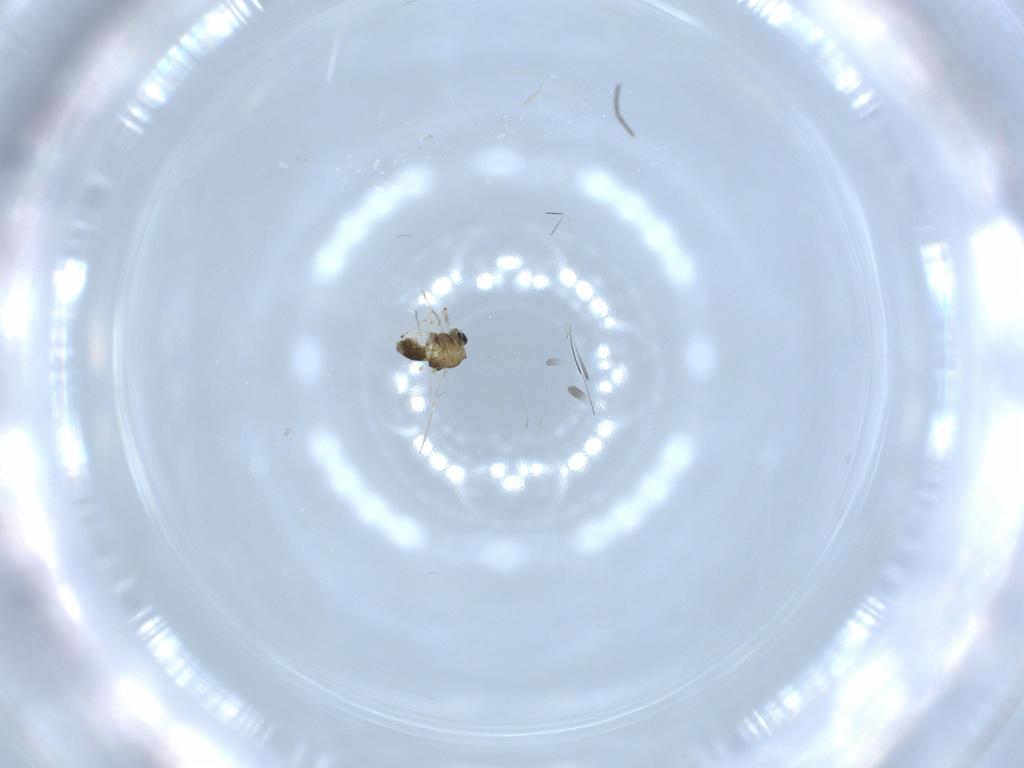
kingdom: Animalia
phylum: Arthropoda
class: Insecta
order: Diptera
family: Chironomidae
